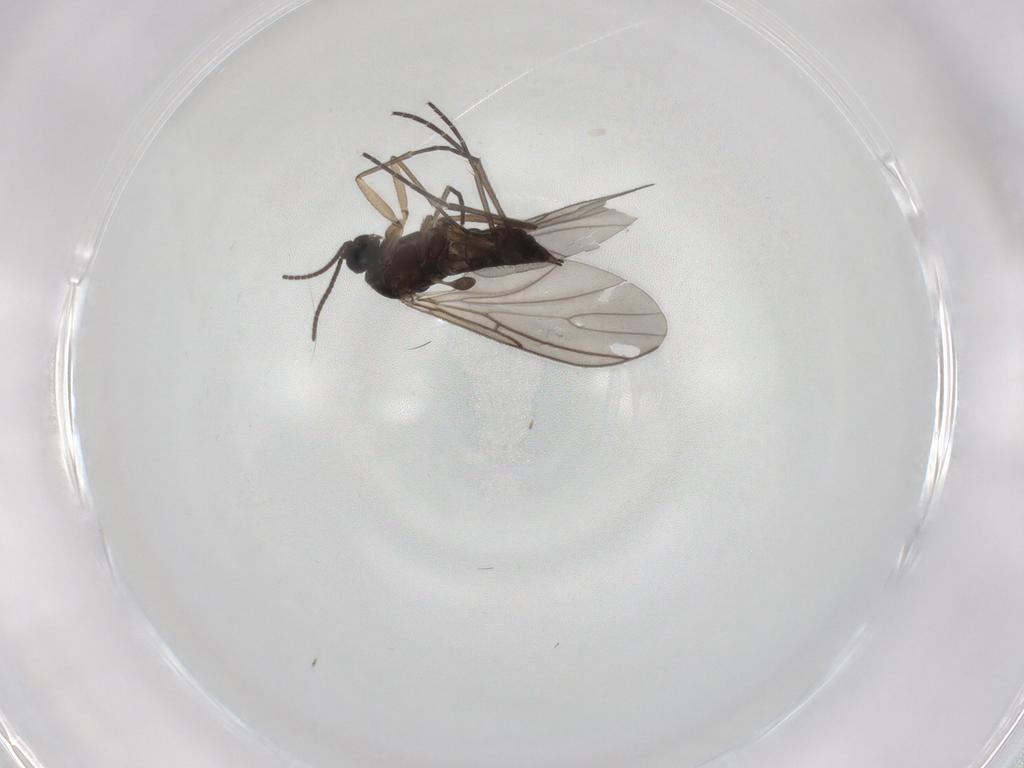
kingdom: Animalia
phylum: Arthropoda
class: Insecta
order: Diptera
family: Sciaridae
